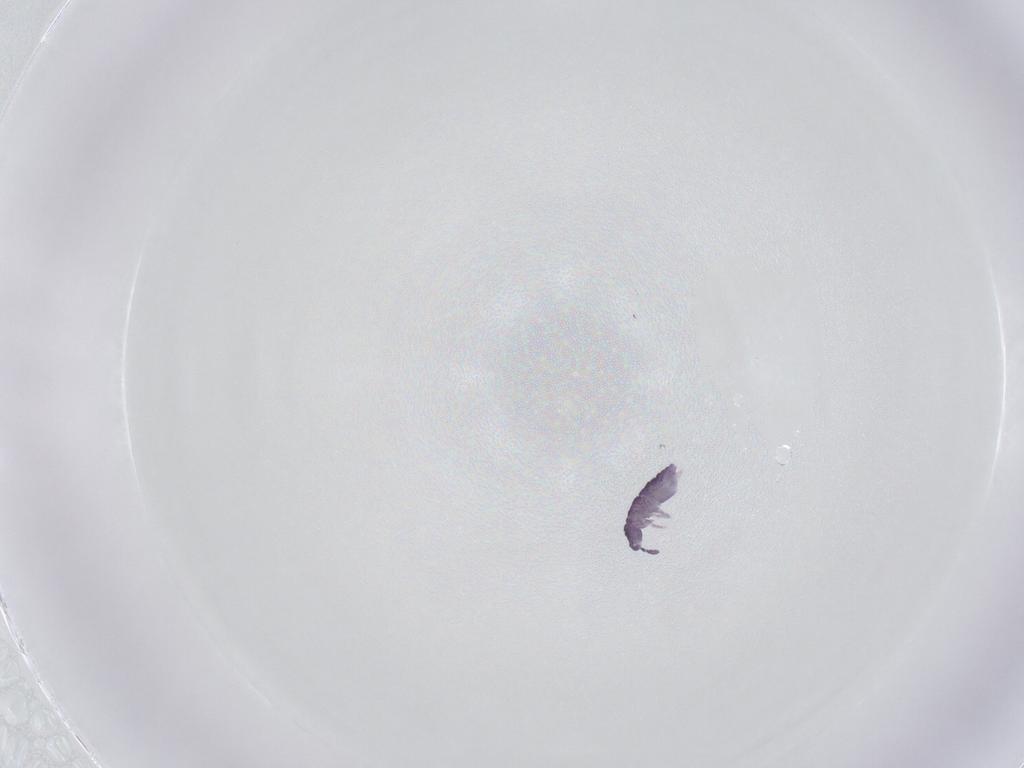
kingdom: Animalia
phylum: Arthropoda
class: Collembola
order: Poduromorpha
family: Neanuridae
